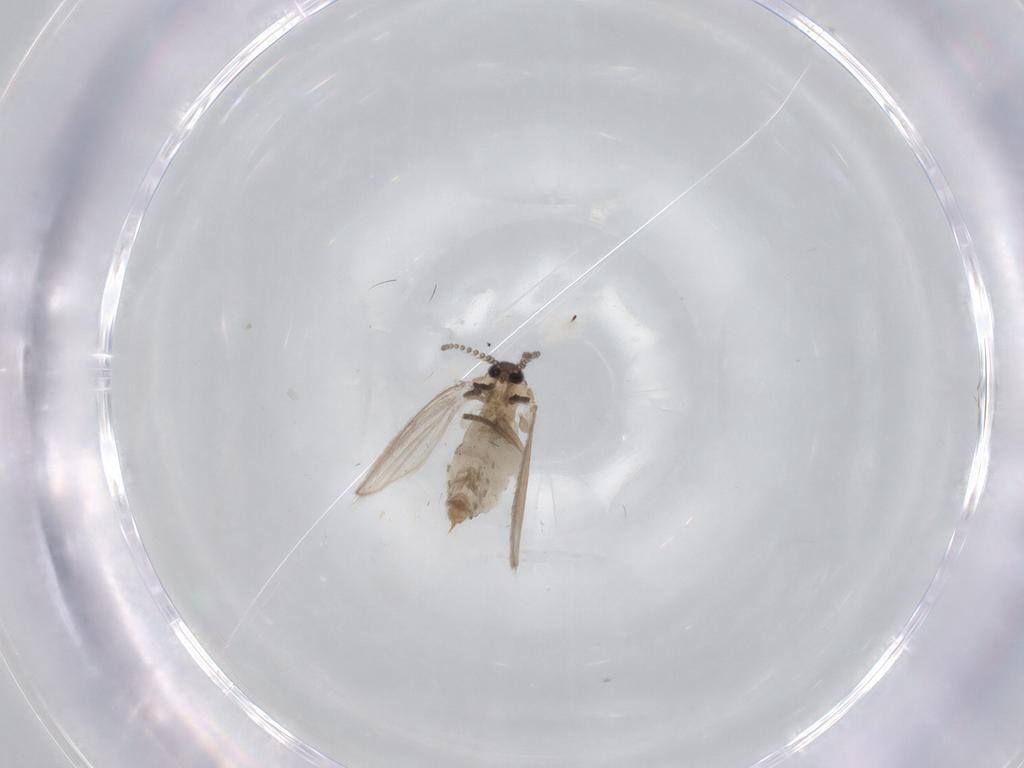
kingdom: Animalia
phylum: Arthropoda
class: Insecta
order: Diptera
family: Psychodidae
